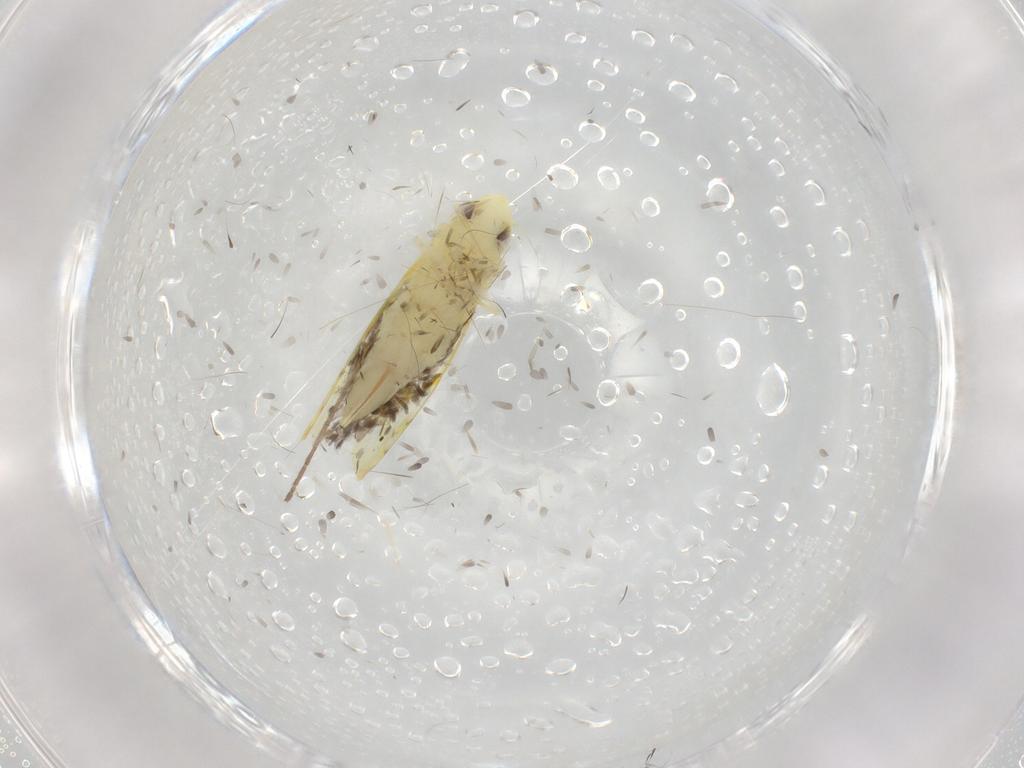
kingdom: Animalia
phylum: Arthropoda
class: Insecta
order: Hemiptera
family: Cicadellidae
